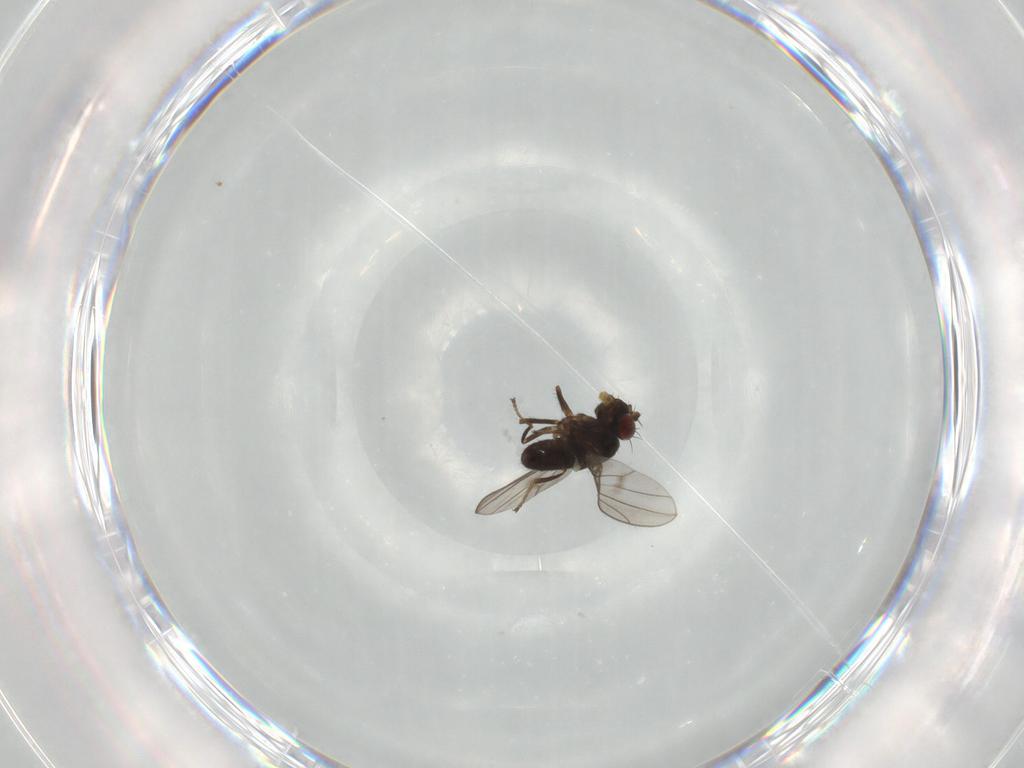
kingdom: Animalia
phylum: Arthropoda
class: Insecta
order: Diptera
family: Ephydridae
